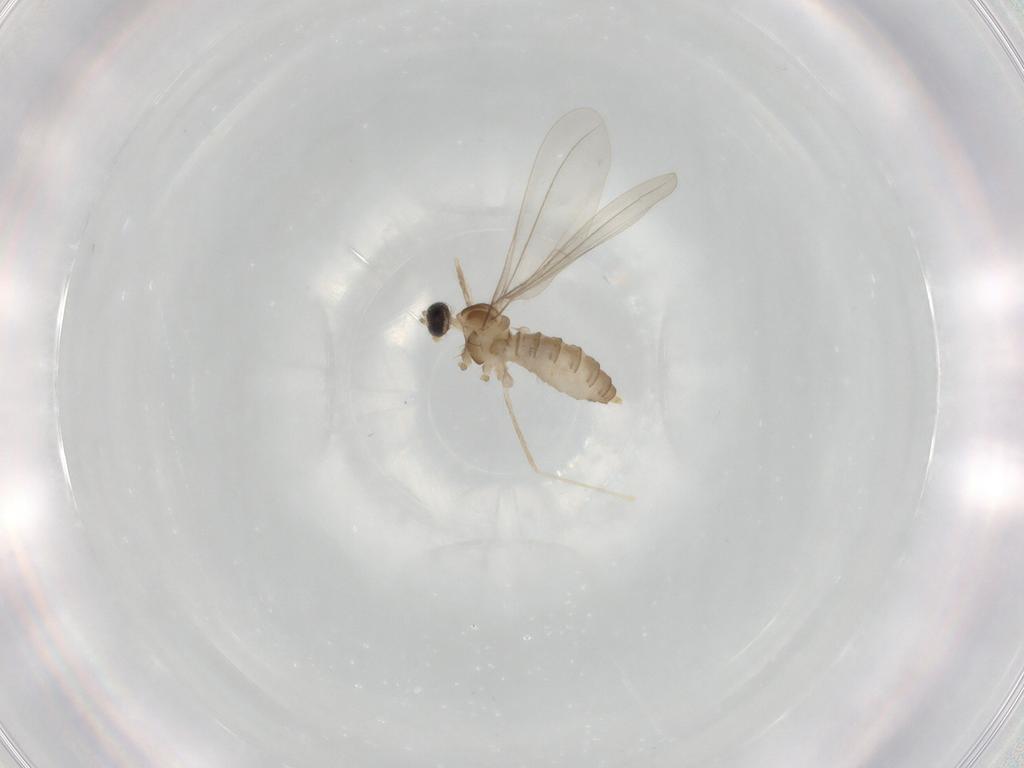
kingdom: Animalia
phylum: Arthropoda
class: Insecta
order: Diptera
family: Cecidomyiidae
